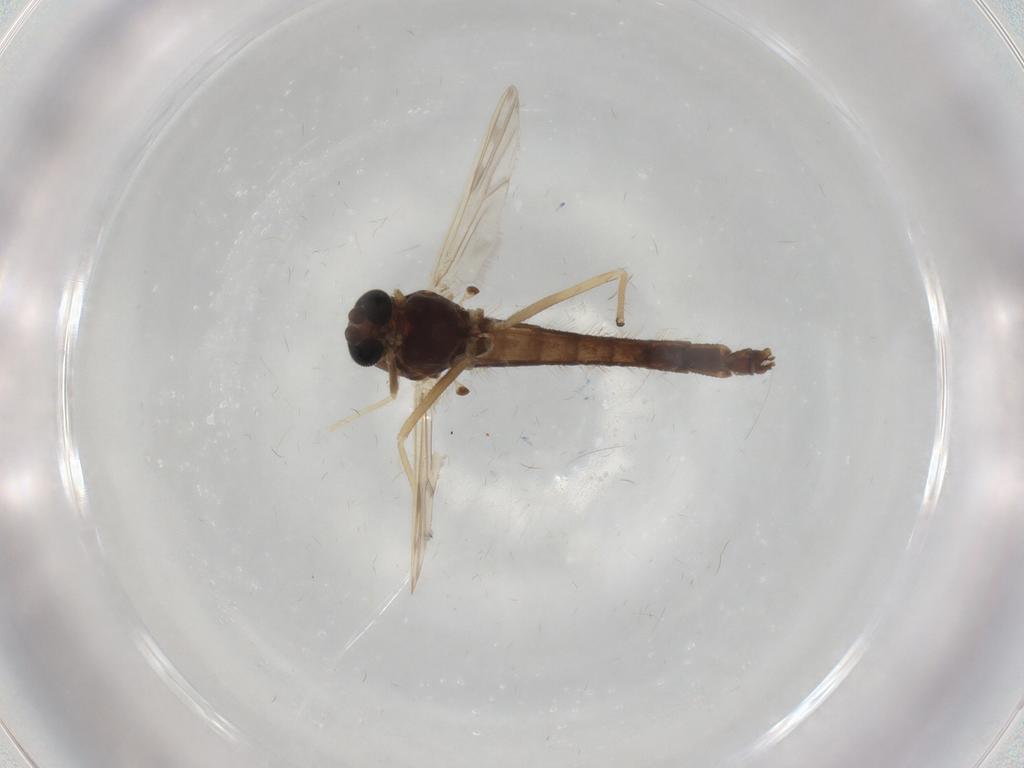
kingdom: Animalia
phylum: Arthropoda
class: Insecta
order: Diptera
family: Chironomidae
